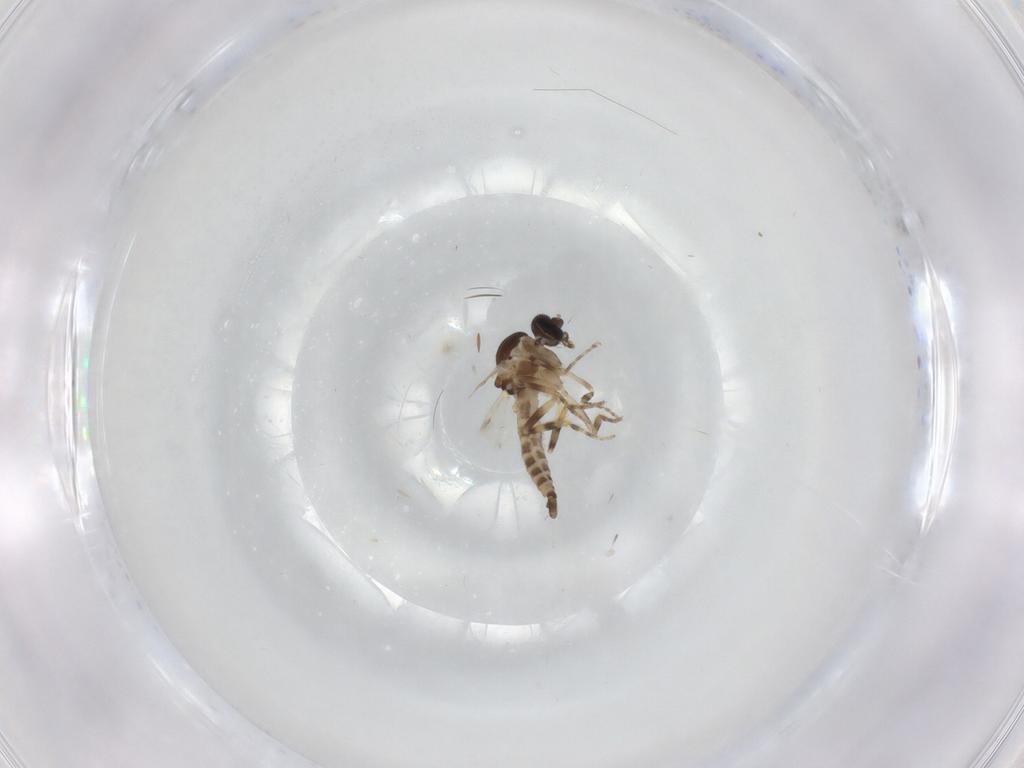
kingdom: Animalia
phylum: Arthropoda
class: Insecta
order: Diptera
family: Ceratopogonidae
